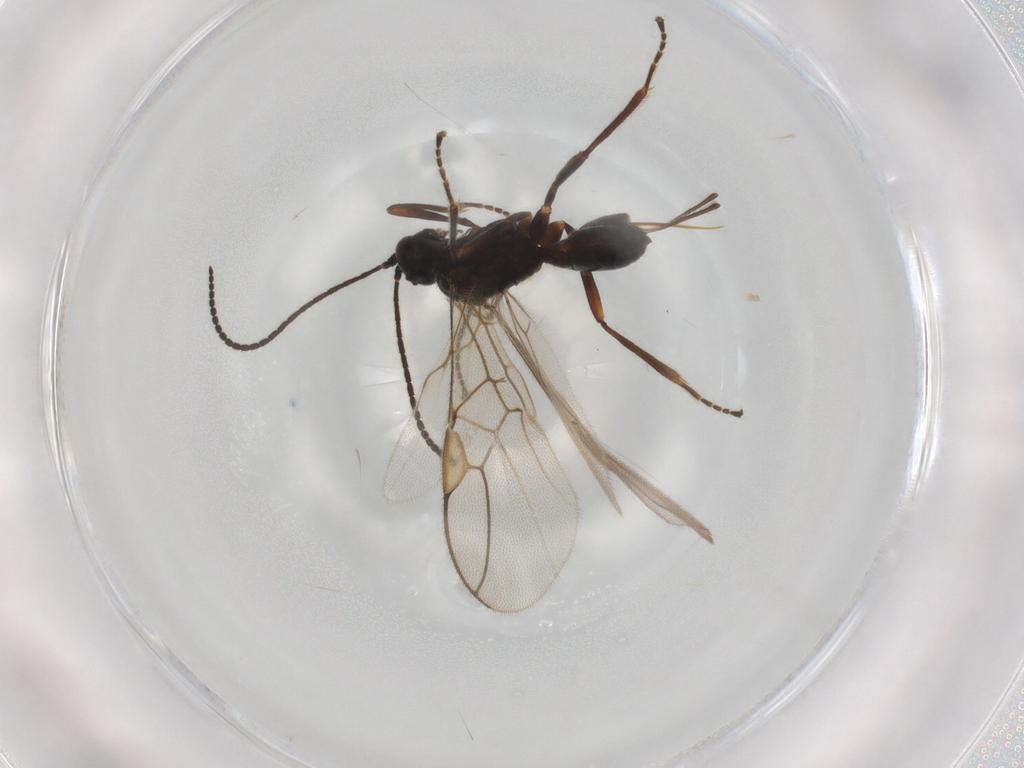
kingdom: Animalia
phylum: Arthropoda
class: Insecta
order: Hymenoptera
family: Braconidae
